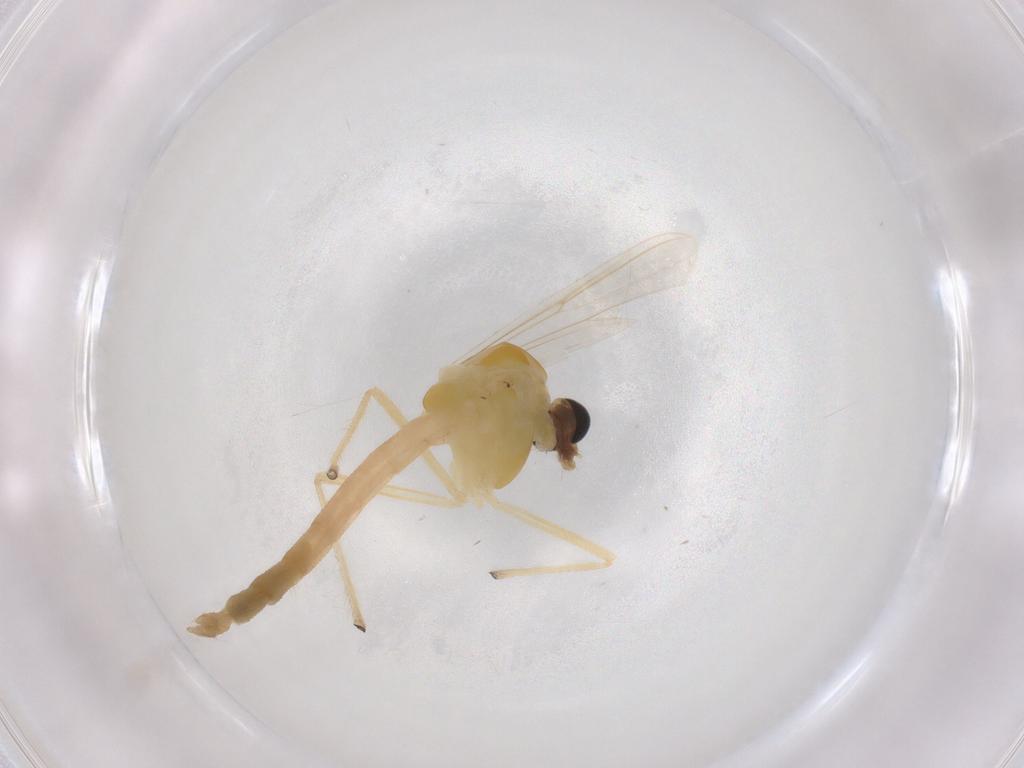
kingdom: Animalia
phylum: Arthropoda
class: Insecta
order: Diptera
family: Chironomidae
